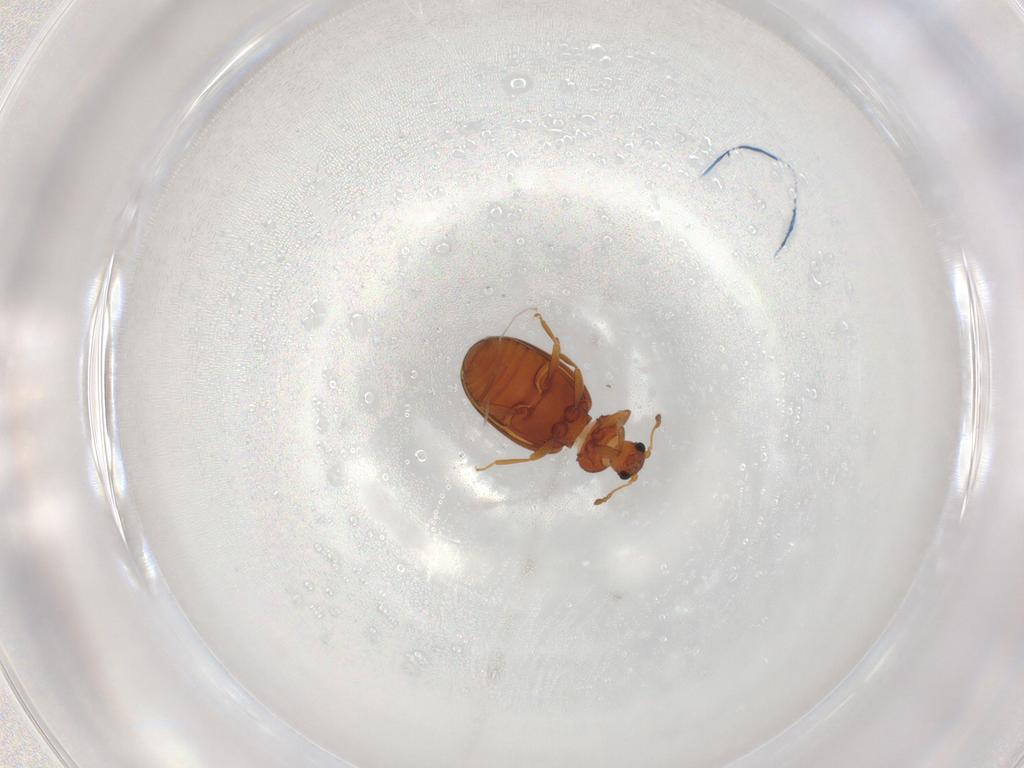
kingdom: Animalia
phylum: Arthropoda
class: Insecta
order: Coleoptera
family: Latridiidae
